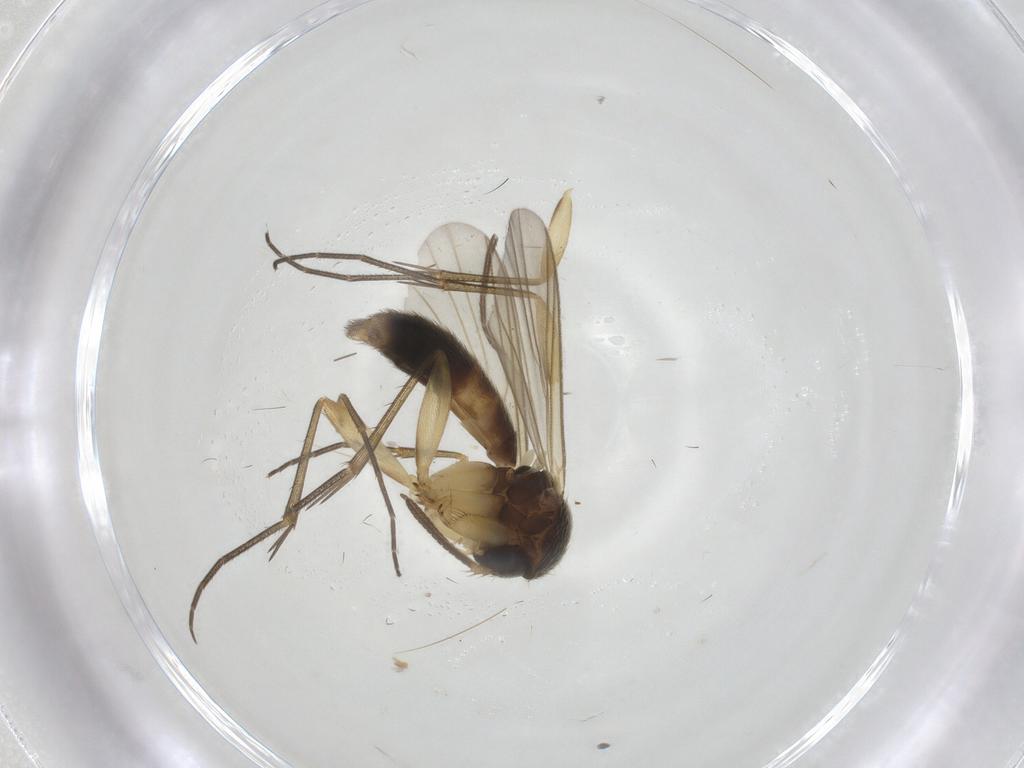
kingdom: Animalia
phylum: Arthropoda
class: Insecta
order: Diptera
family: Mycetophilidae
